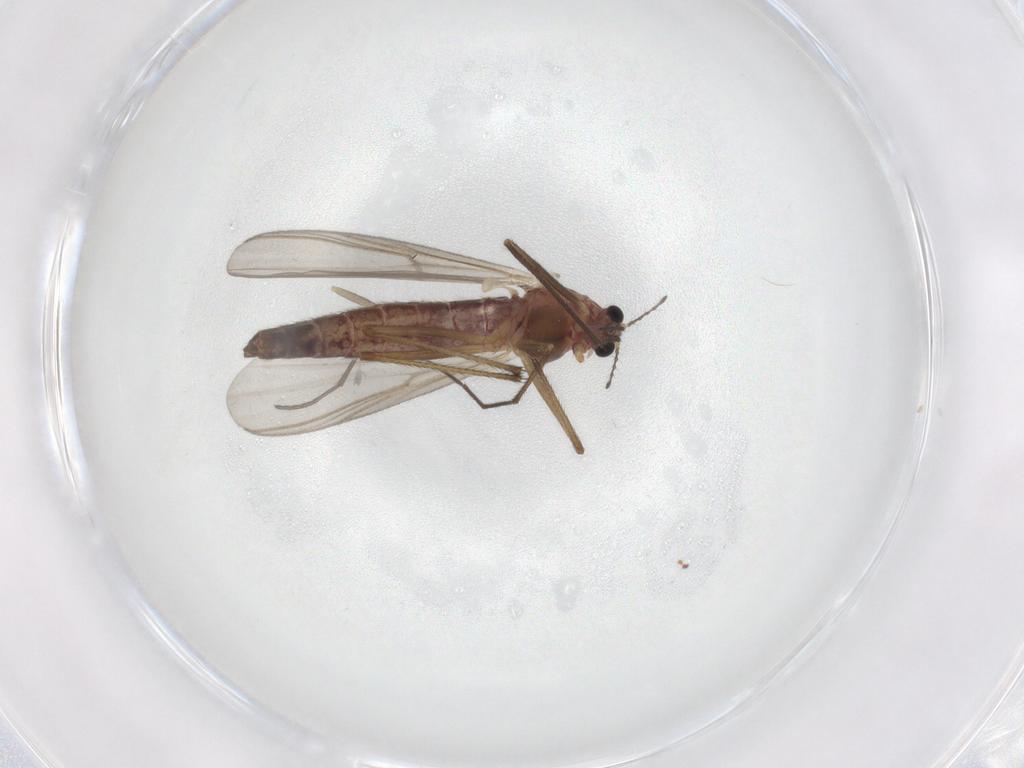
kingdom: Animalia
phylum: Arthropoda
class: Insecta
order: Diptera
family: Chironomidae
